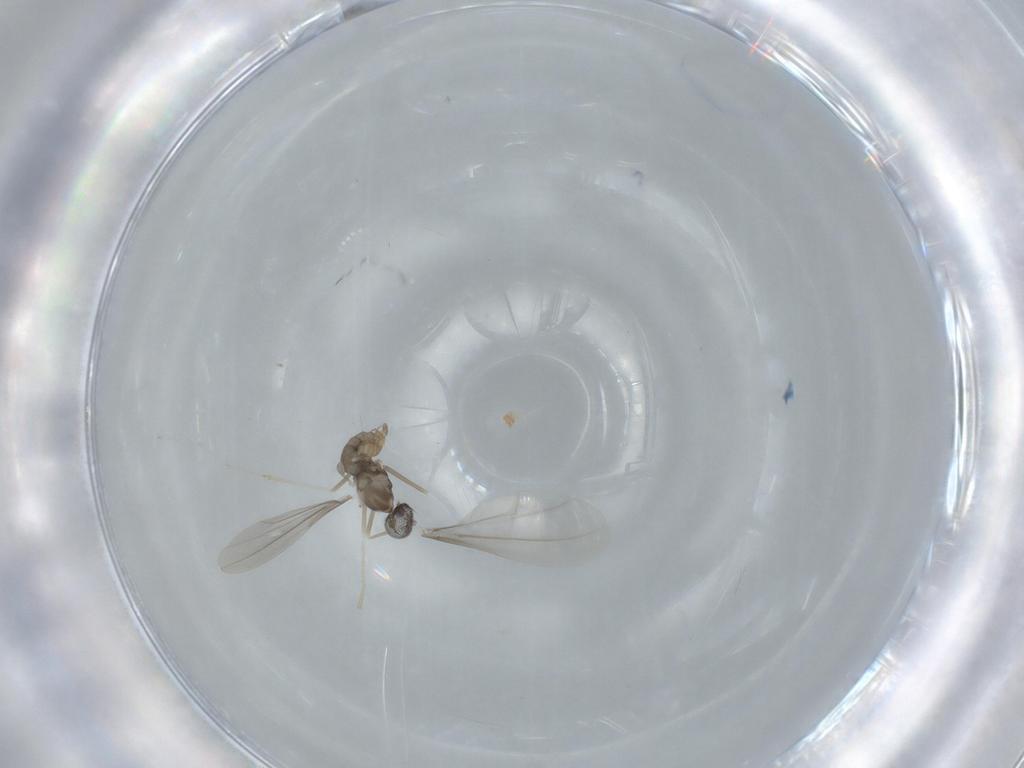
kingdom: Animalia
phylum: Arthropoda
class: Insecta
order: Diptera
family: Cecidomyiidae
